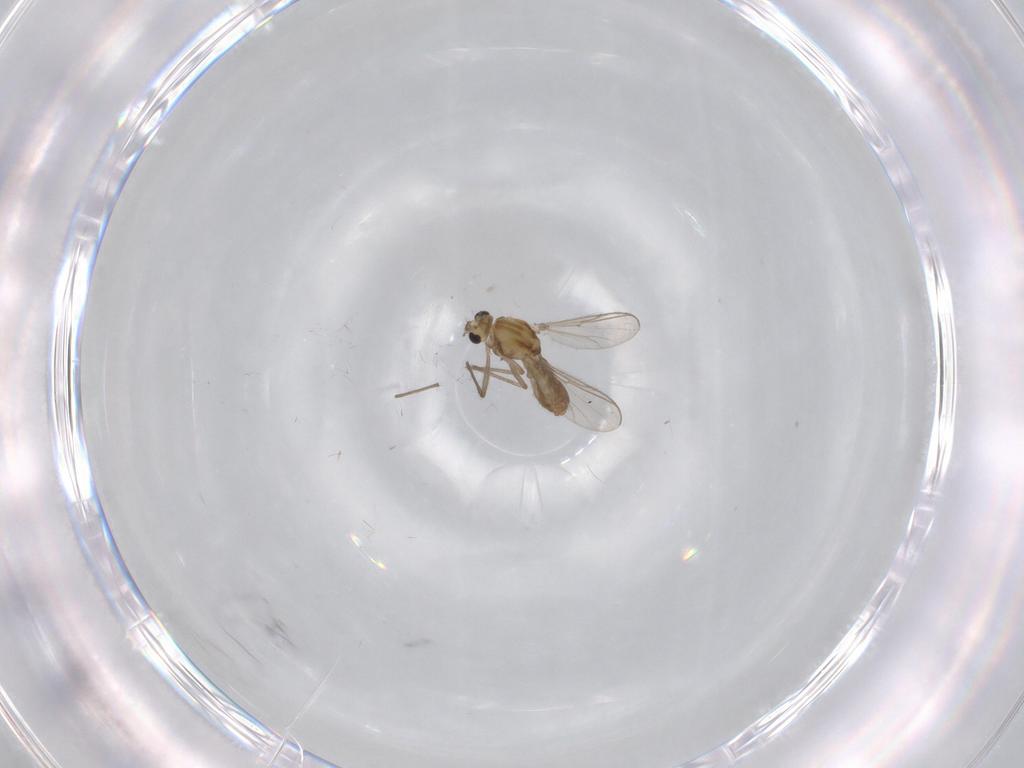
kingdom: Animalia
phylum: Arthropoda
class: Insecta
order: Diptera
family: Chironomidae
